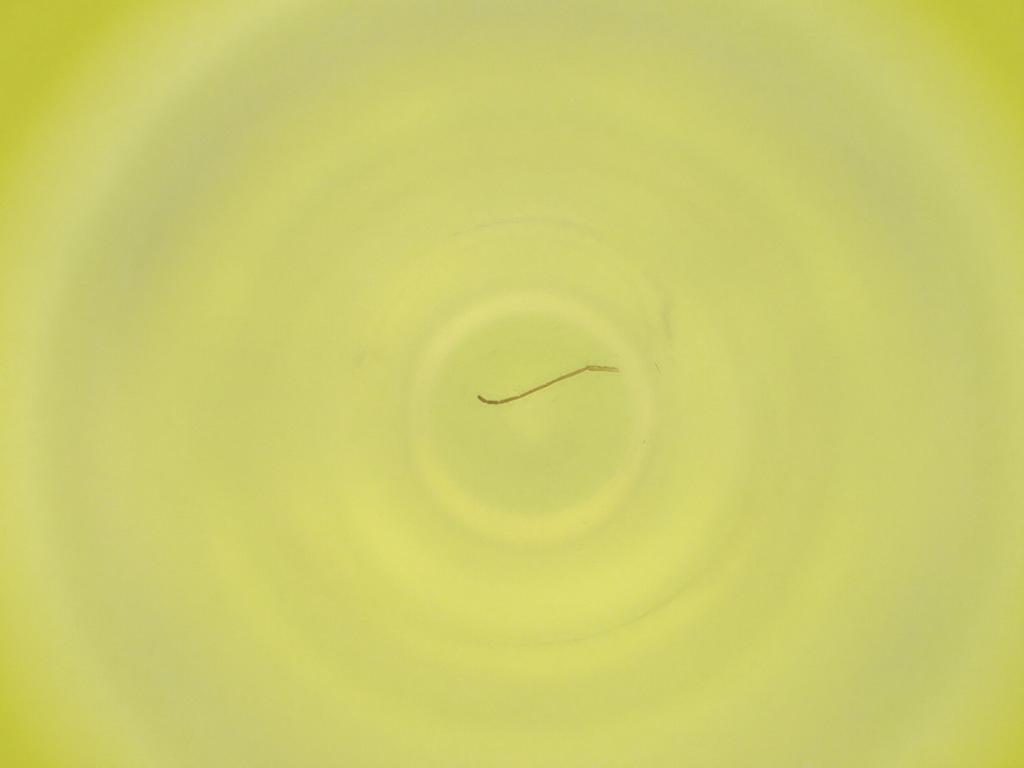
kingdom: Animalia
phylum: Arthropoda
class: Insecta
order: Diptera
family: Cecidomyiidae
